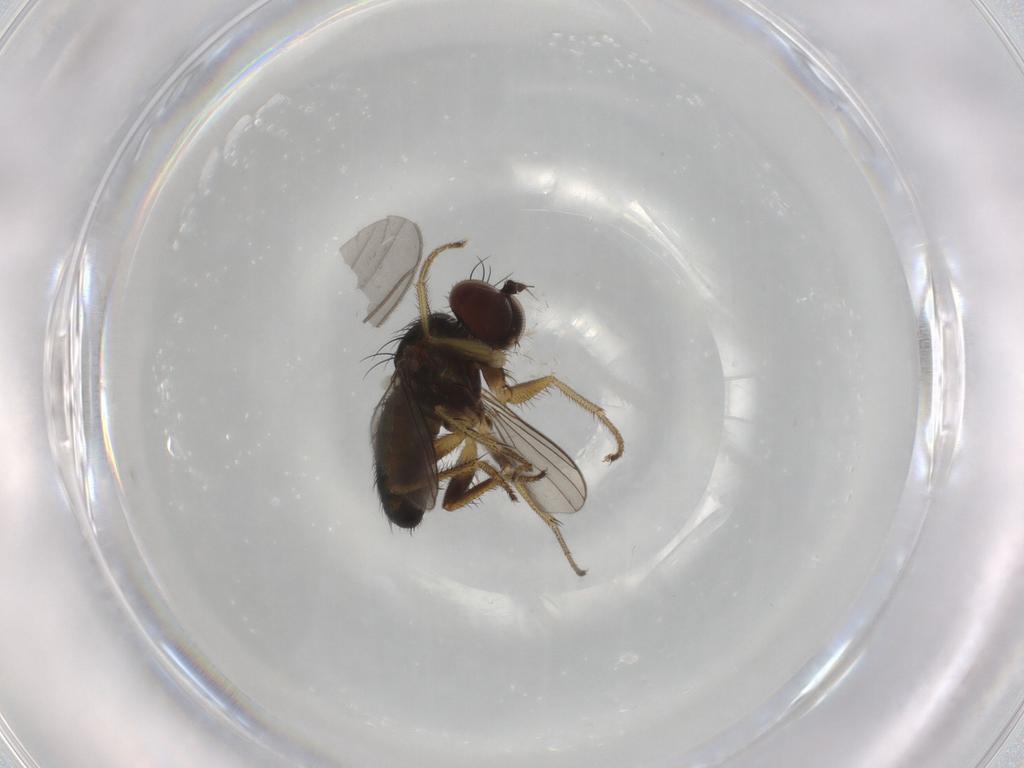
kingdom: Animalia
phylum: Arthropoda
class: Insecta
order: Diptera
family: Dolichopodidae
